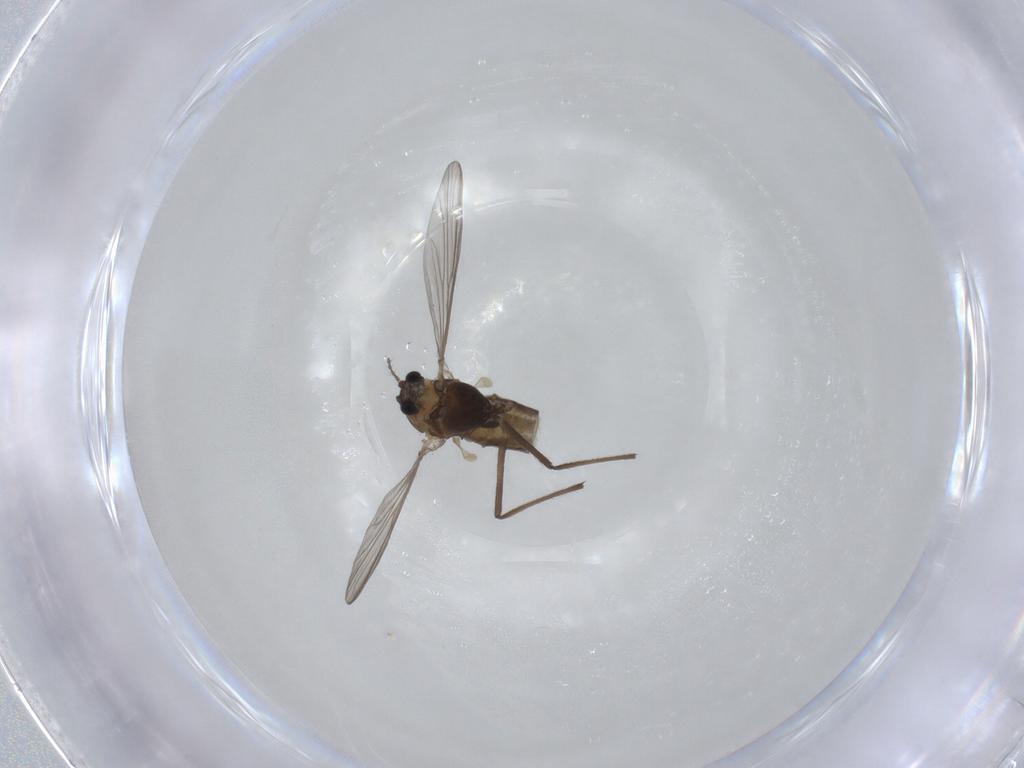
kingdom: Animalia
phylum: Arthropoda
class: Insecta
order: Diptera
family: Chironomidae
